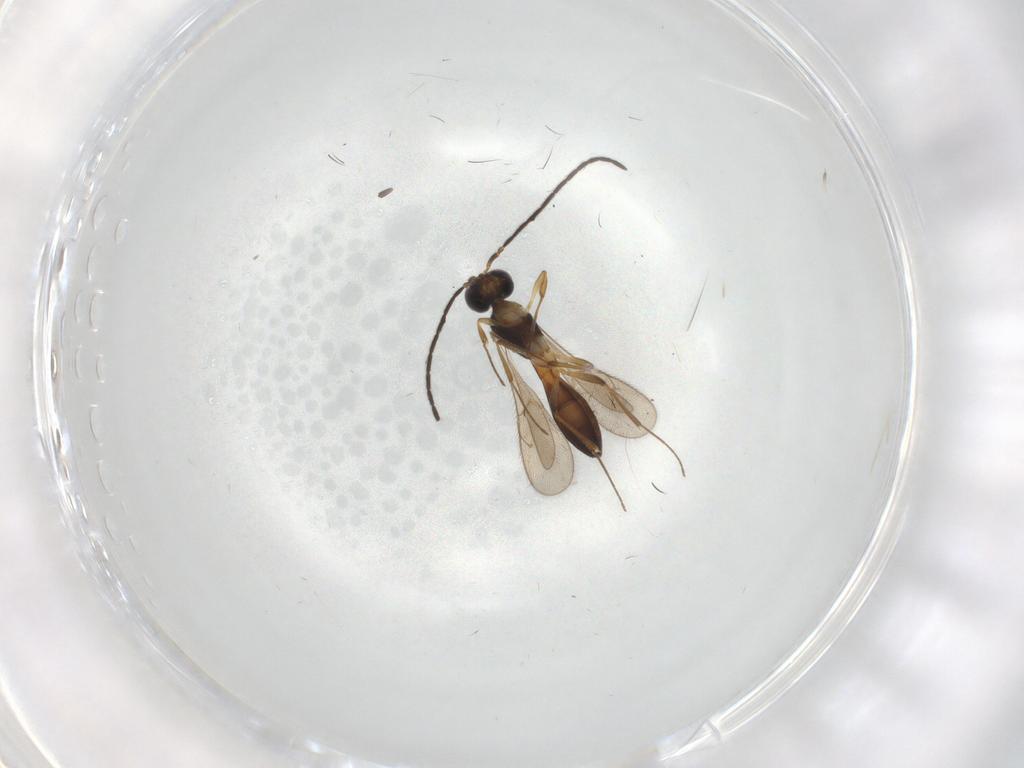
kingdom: Animalia
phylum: Arthropoda
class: Insecta
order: Hymenoptera
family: Scelionidae
